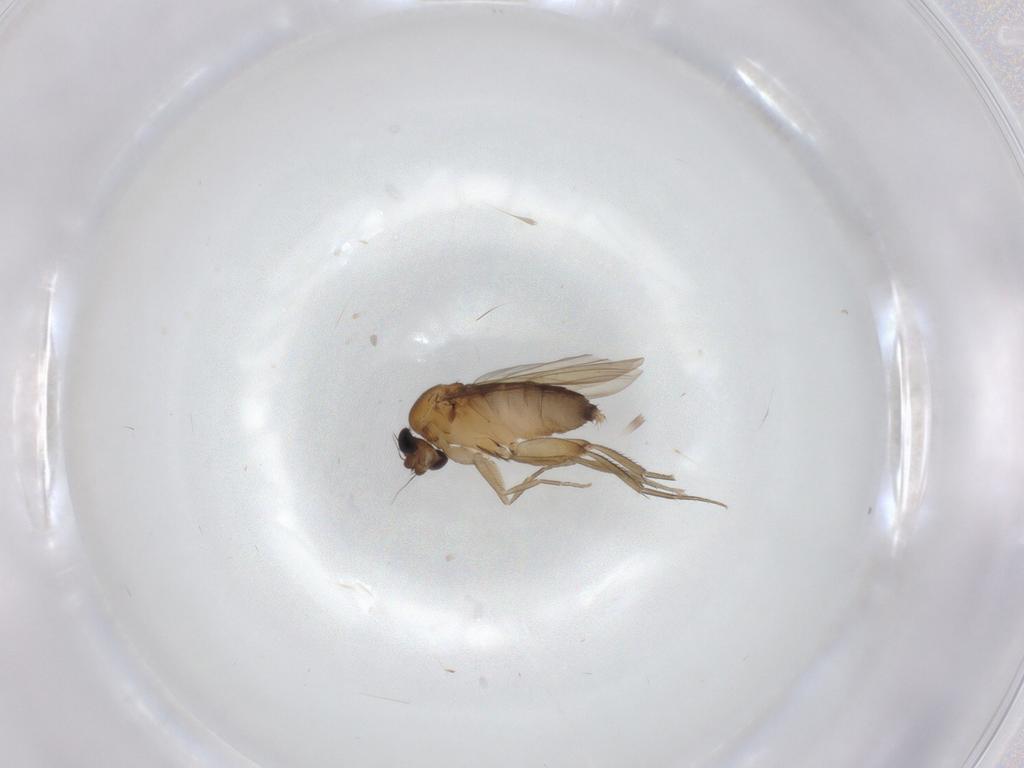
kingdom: Animalia
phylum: Arthropoda
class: Insecta
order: Diptera
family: Phoridae
